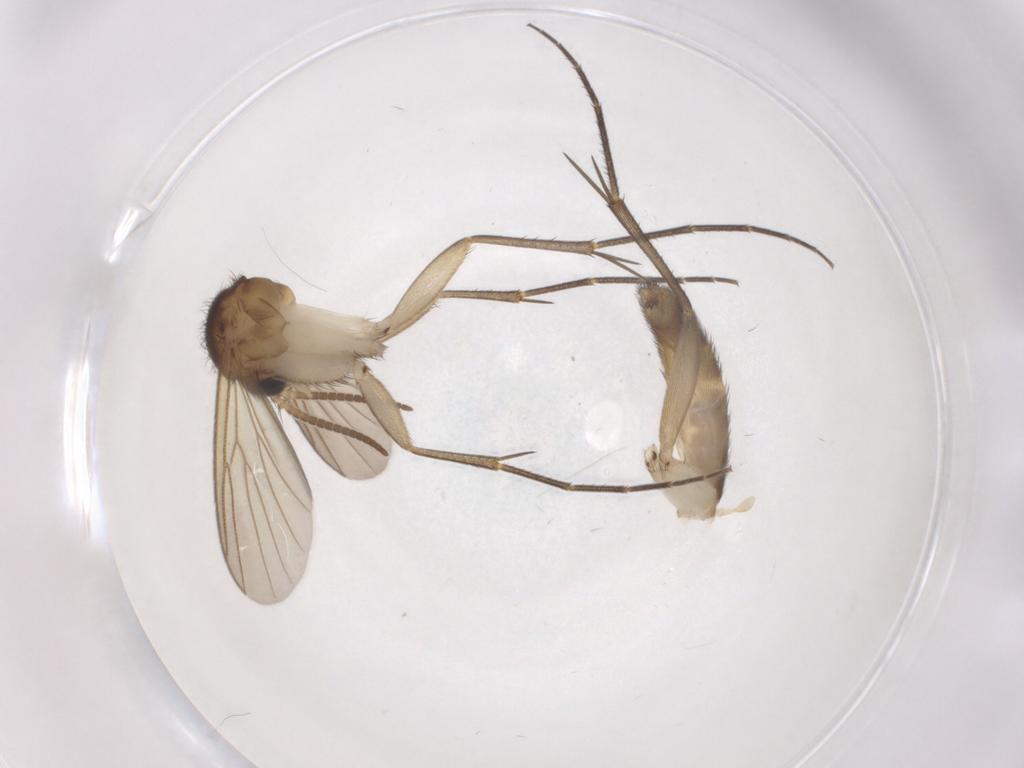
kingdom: Animalia
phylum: Arthropoda
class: Insecta
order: Diptera
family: Mycetophilidae
